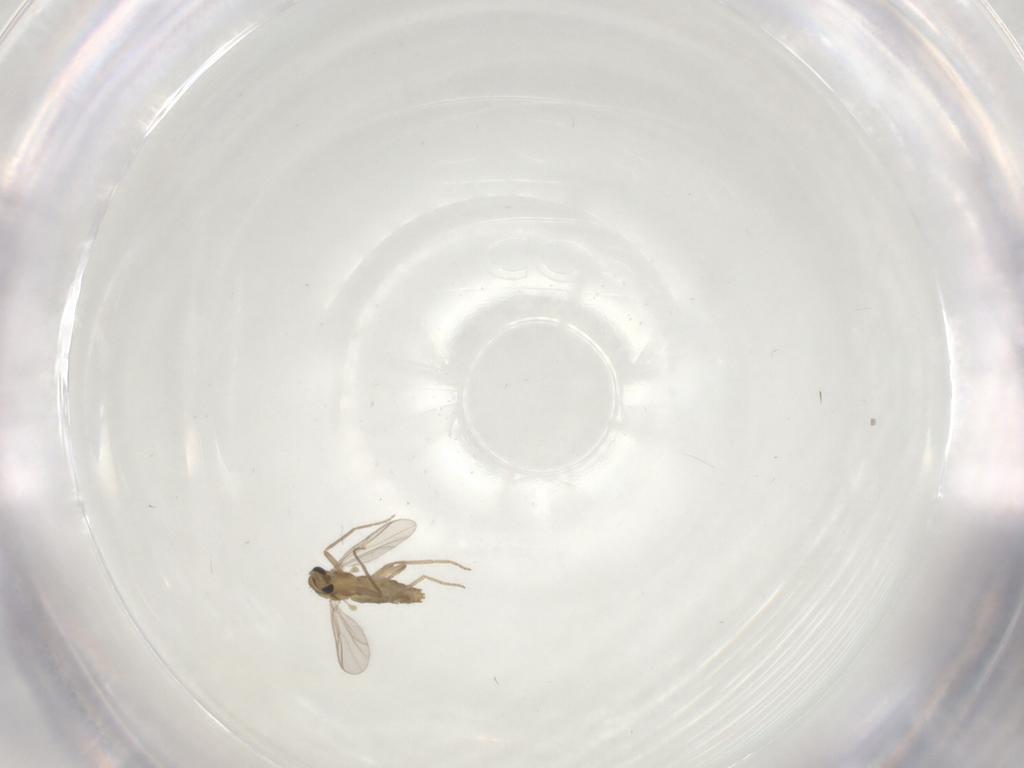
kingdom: Animalia
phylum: Arthropoda
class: Insecta
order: Diptera
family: Chironomidae
